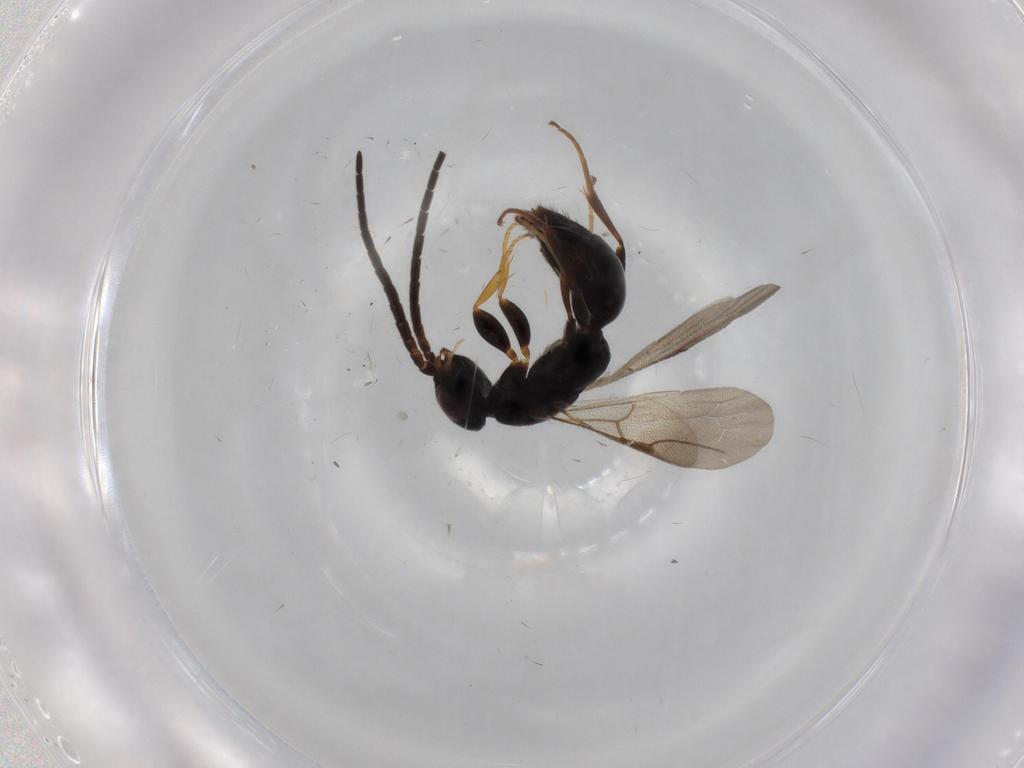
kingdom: Animalia
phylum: Arthropoda
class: Insecta
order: Hymenoptera
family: Bethylidae
